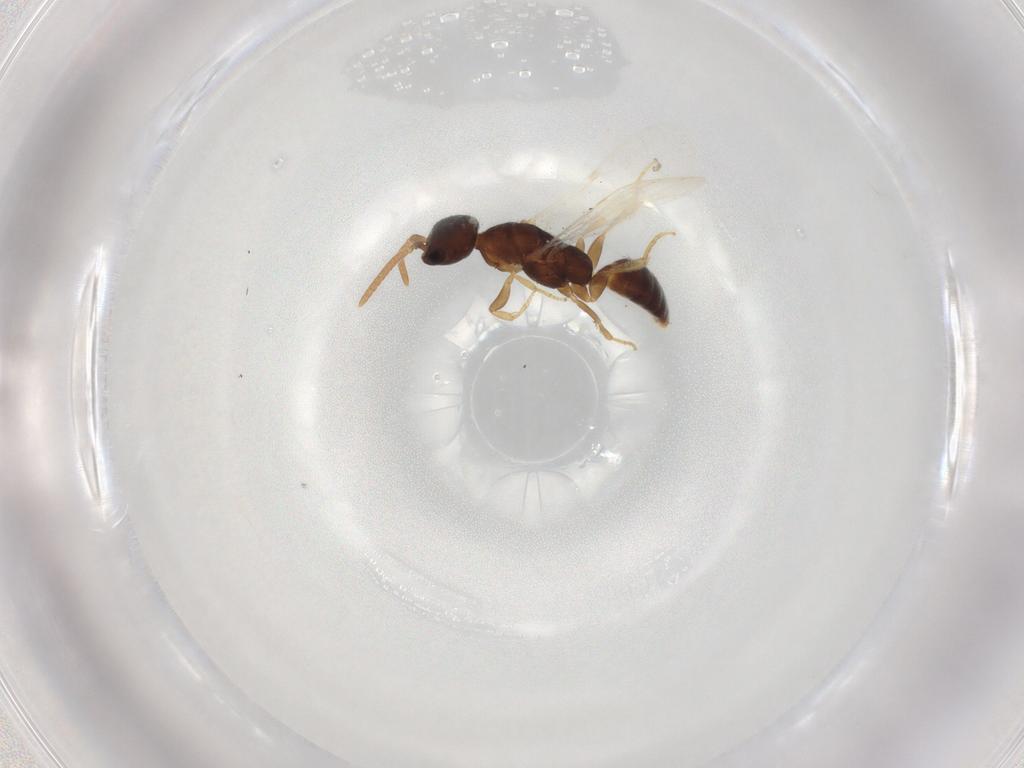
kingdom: Animalia
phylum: Arthropoda
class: Insecta
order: Hymenoptera
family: Bethylidae
